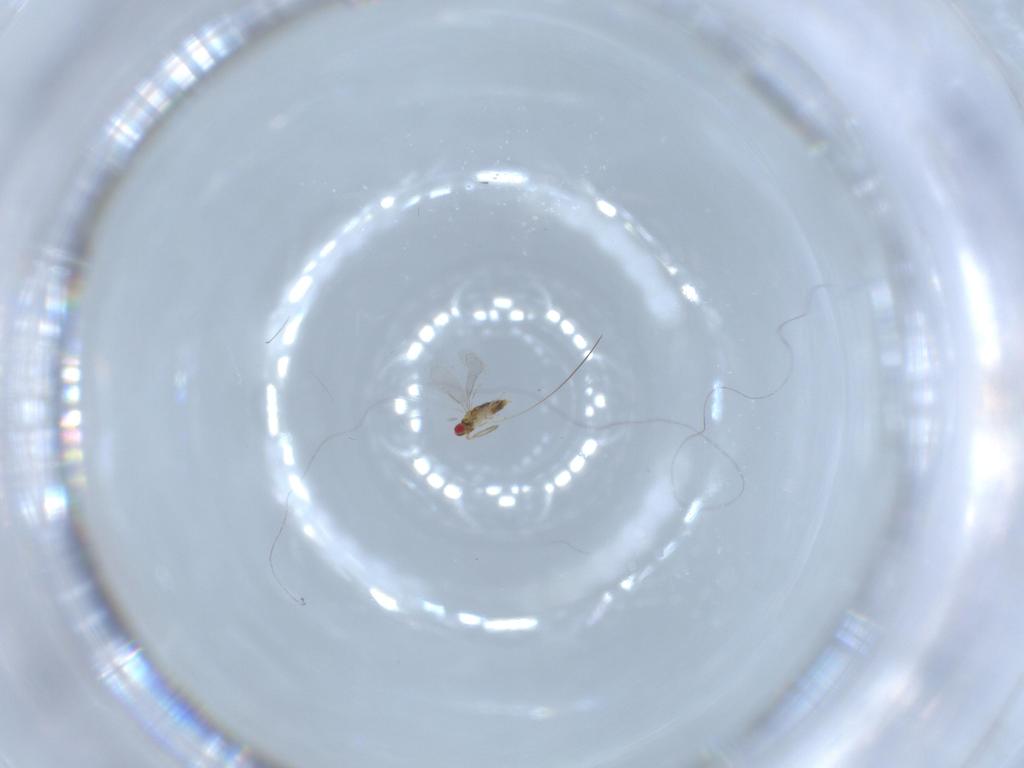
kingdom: Animalia
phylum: Arthropoda
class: Insecta
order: Hymenoptera
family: Aphelinidae
